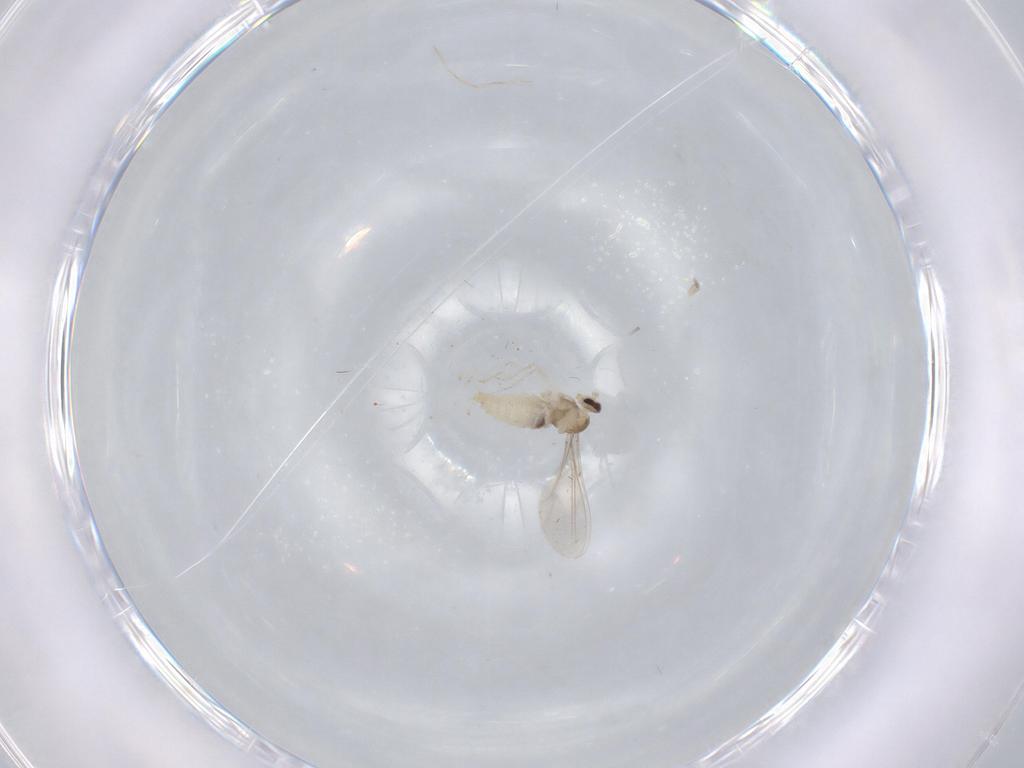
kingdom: Animalia
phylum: Arthropoda
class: Insecta
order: Diptera
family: Cecidomyiidae
